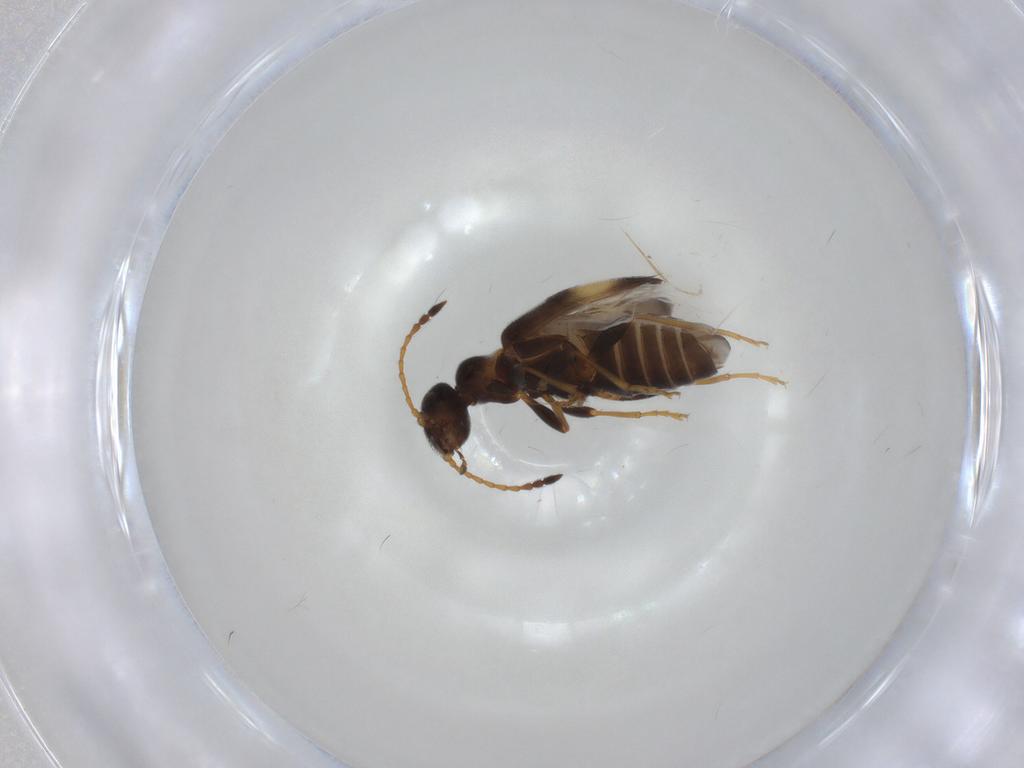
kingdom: Animalia
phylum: Arthropoda
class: Insecta
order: Coleoptera
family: Anthicidae
